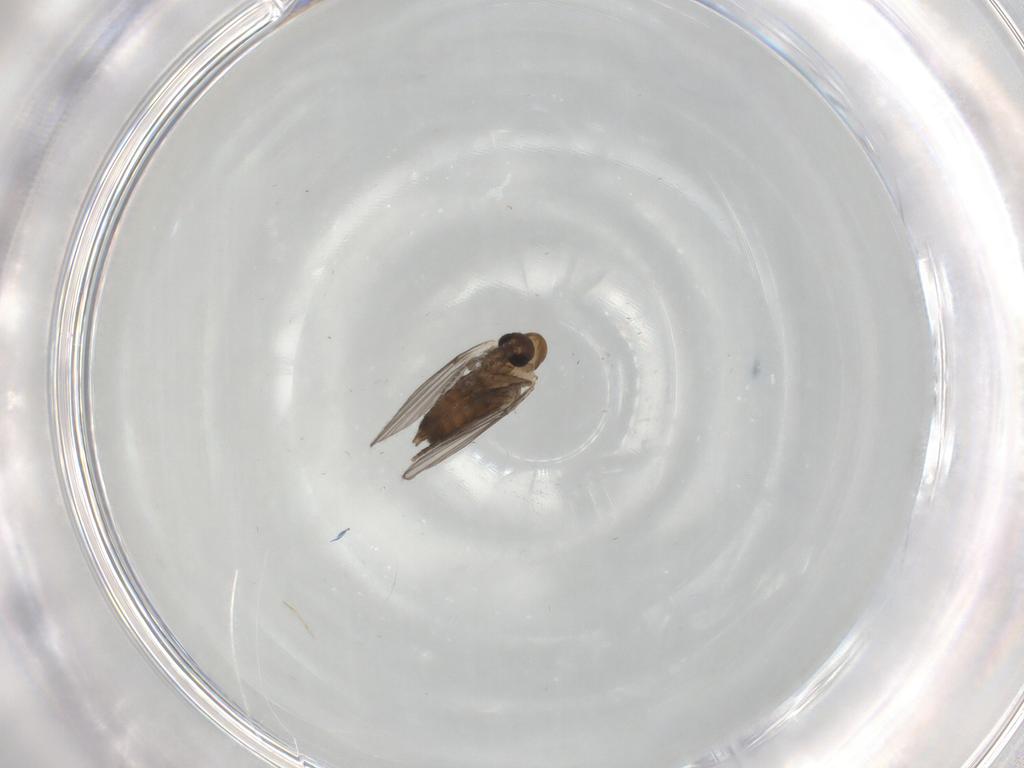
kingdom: Animalia
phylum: Arthropoda
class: Insecta
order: Diptera
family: Psychodidae
